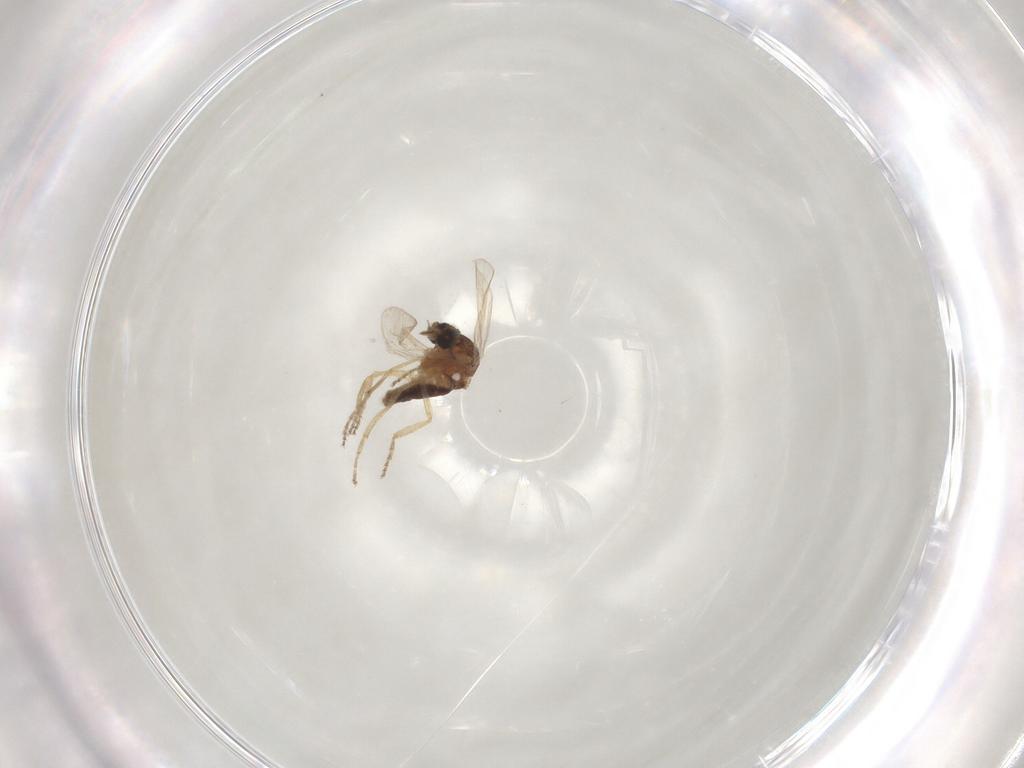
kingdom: Animalia
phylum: Arthropoda
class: Insecta
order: Diptera
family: Ceratopogonidae
